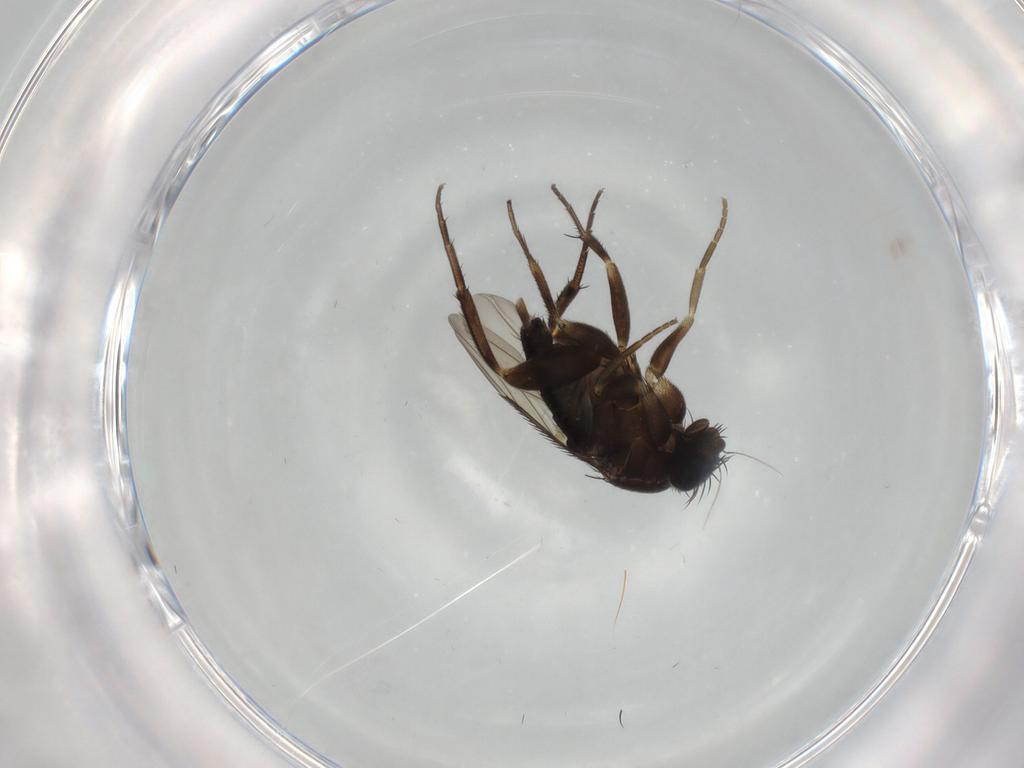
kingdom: Animalia
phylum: Arthropoda
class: Insecta
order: Diptera
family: Phoridae
